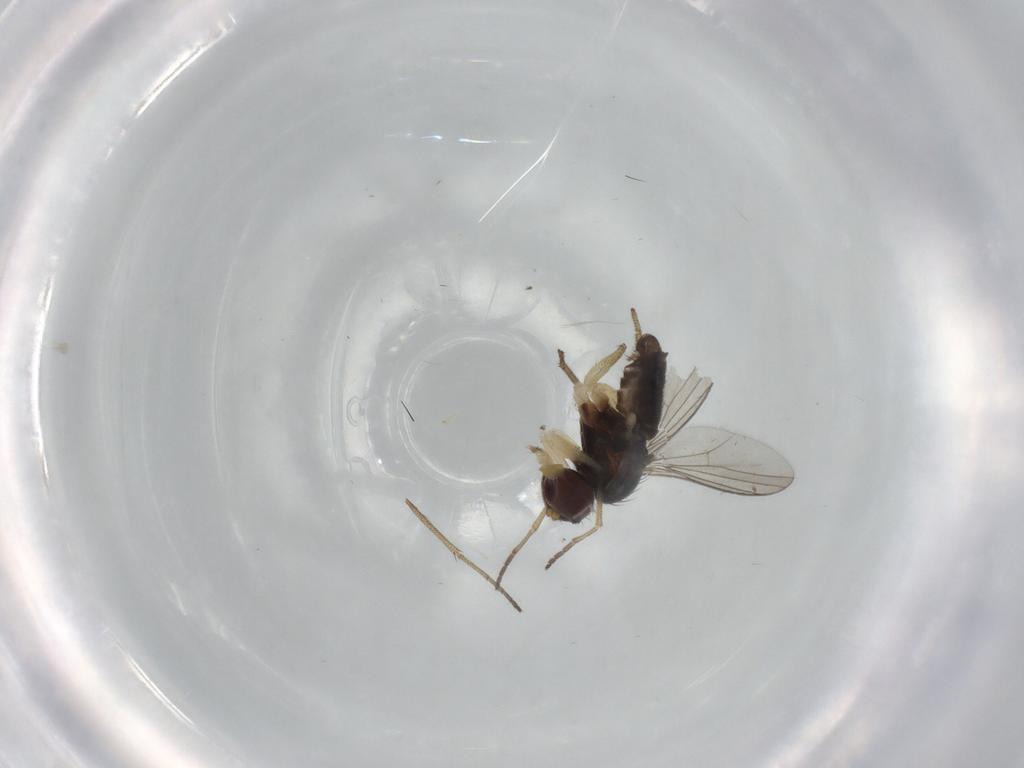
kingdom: Animalia
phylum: Arthropoda
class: Insecta
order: Diptera
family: Dolichopodidae
